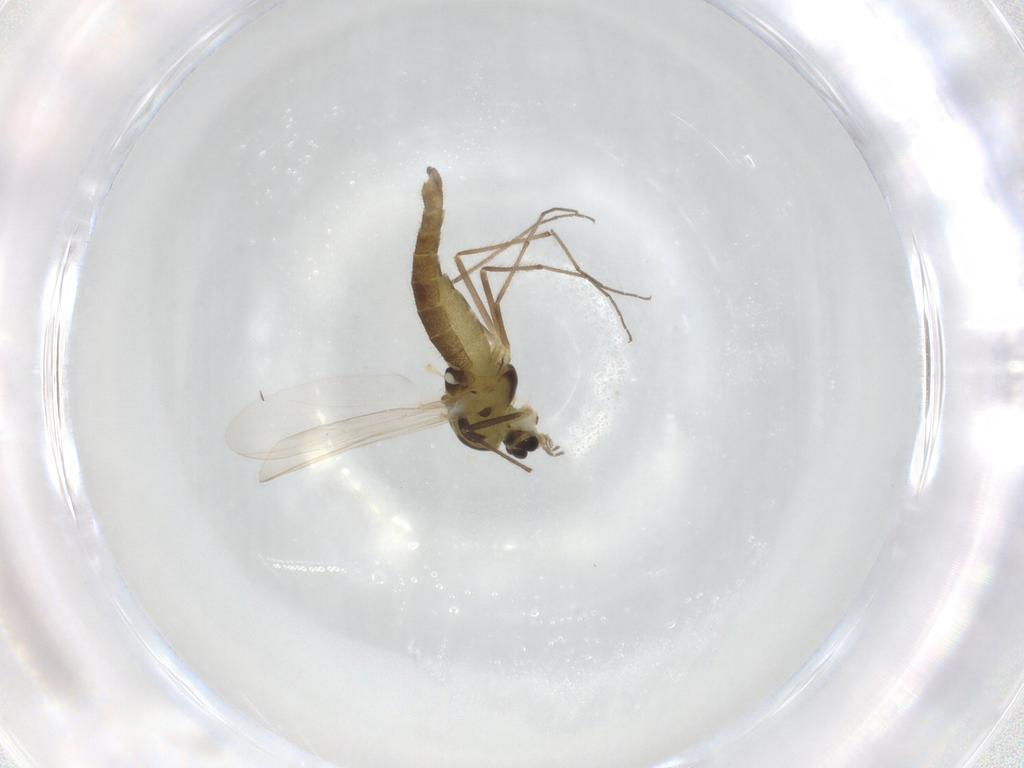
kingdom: Animalia
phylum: Arthropoda
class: Insecta
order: Diptera
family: Chironomidae
